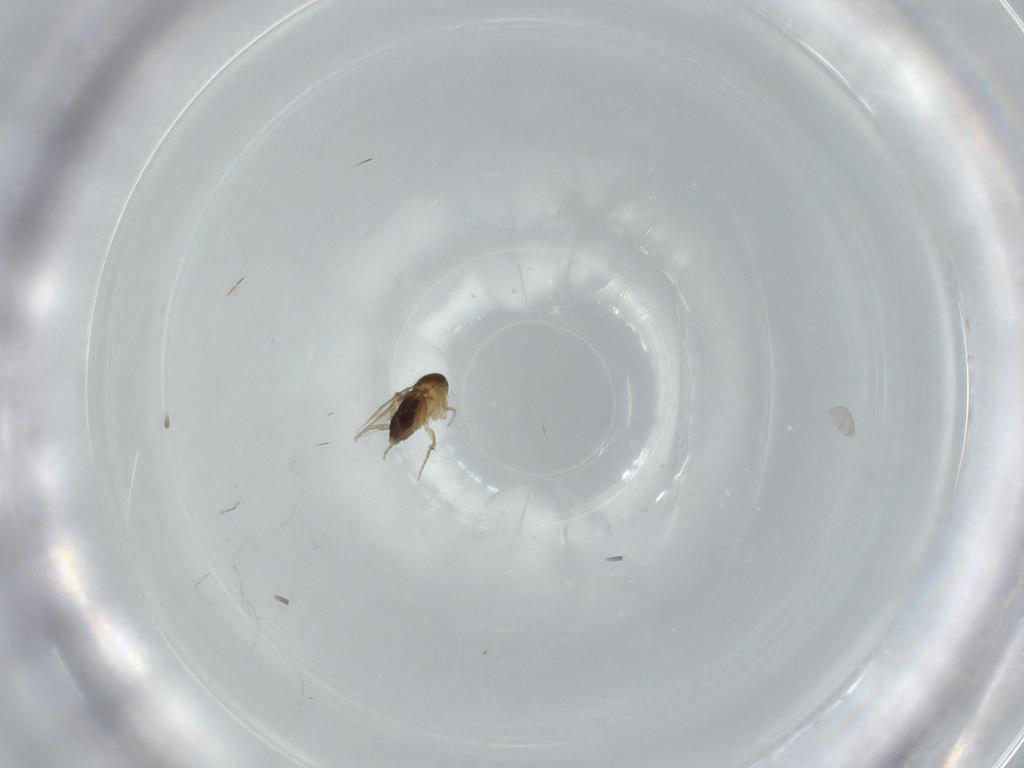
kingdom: Animalia
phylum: Arthropoda
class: Insecta
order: Diptera
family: Phoridae
